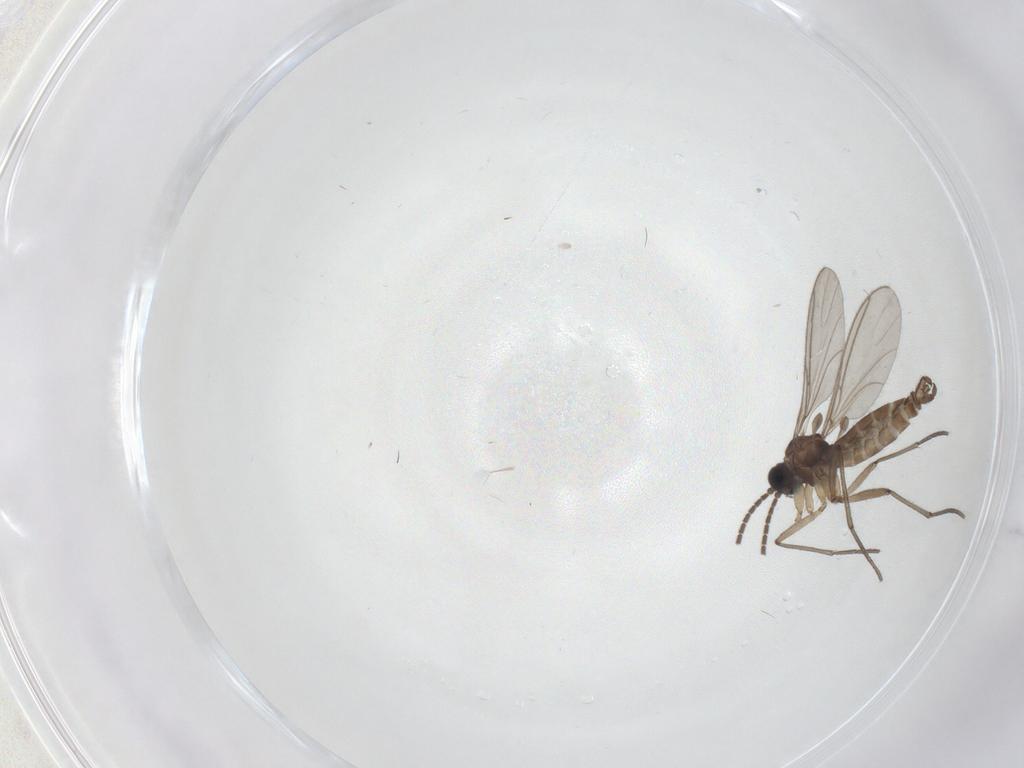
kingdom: Animalia
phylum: Arthropoda
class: Insecta
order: Diptera
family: Sciaridae
